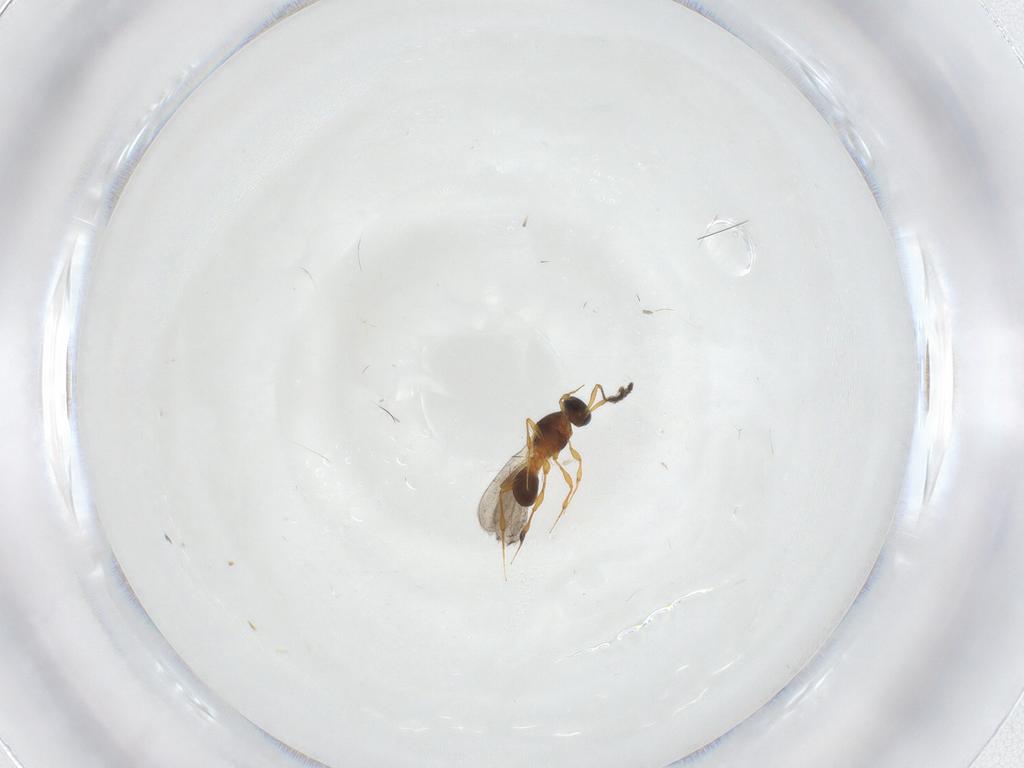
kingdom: Animalia
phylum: Arthropoda
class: Insecta
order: Hymenoptera
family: Platygastridae
